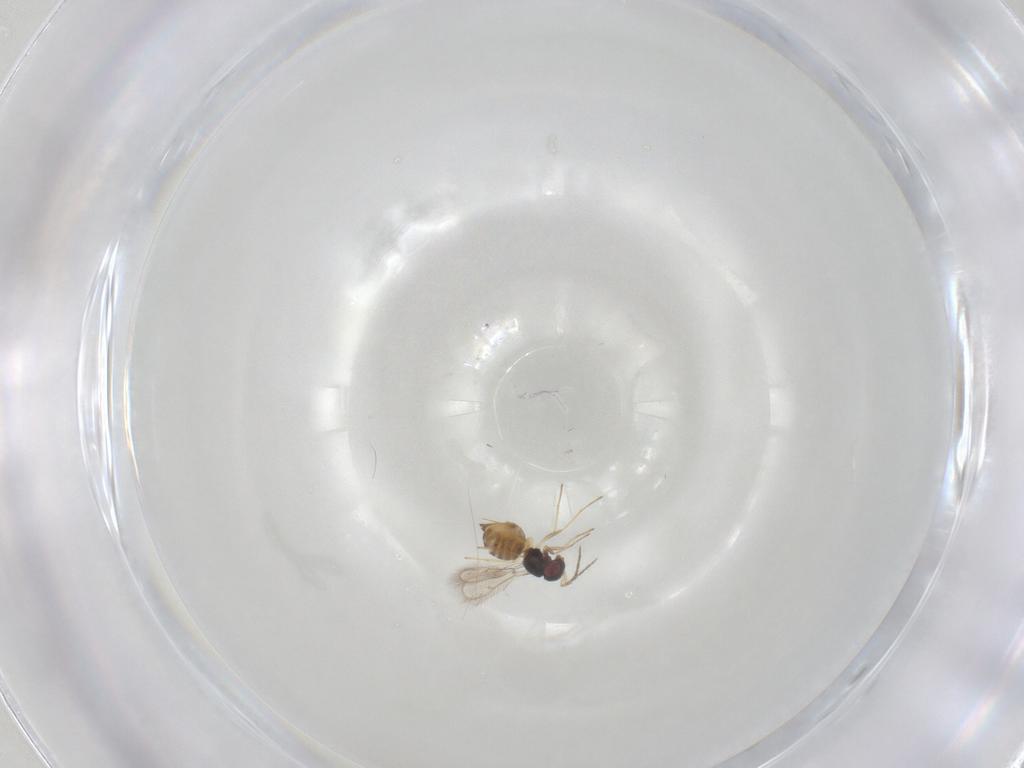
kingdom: Animalia
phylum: Arthropoda
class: Insecta
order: Hymenoptera
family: Eulophidae
